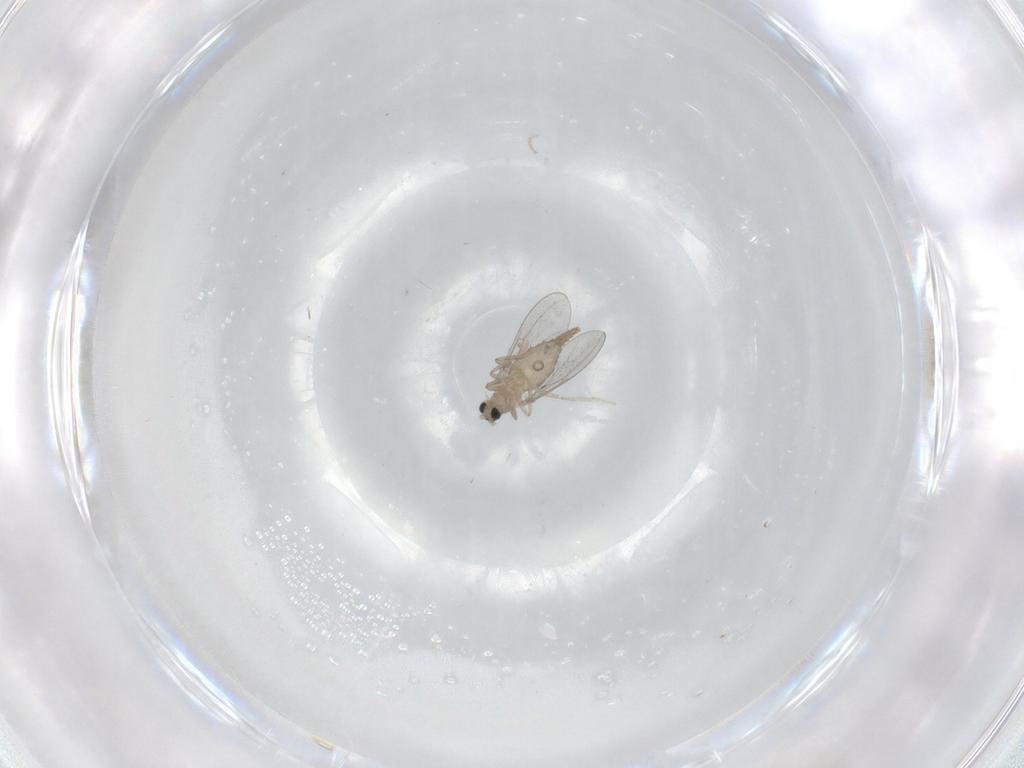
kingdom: Animalia
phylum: Arthropoda
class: Insecta
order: Diptera
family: Cecidomyiidae
